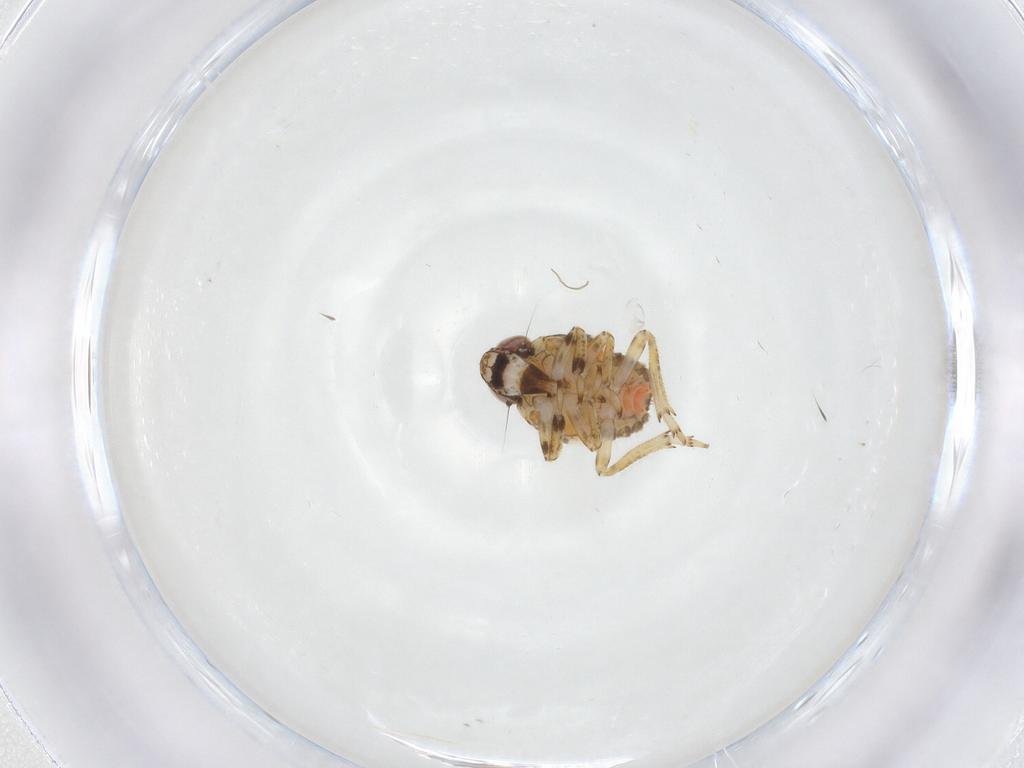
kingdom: Animalia
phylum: Arthropoda
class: Insecta
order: Hemiptera
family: Issidae
